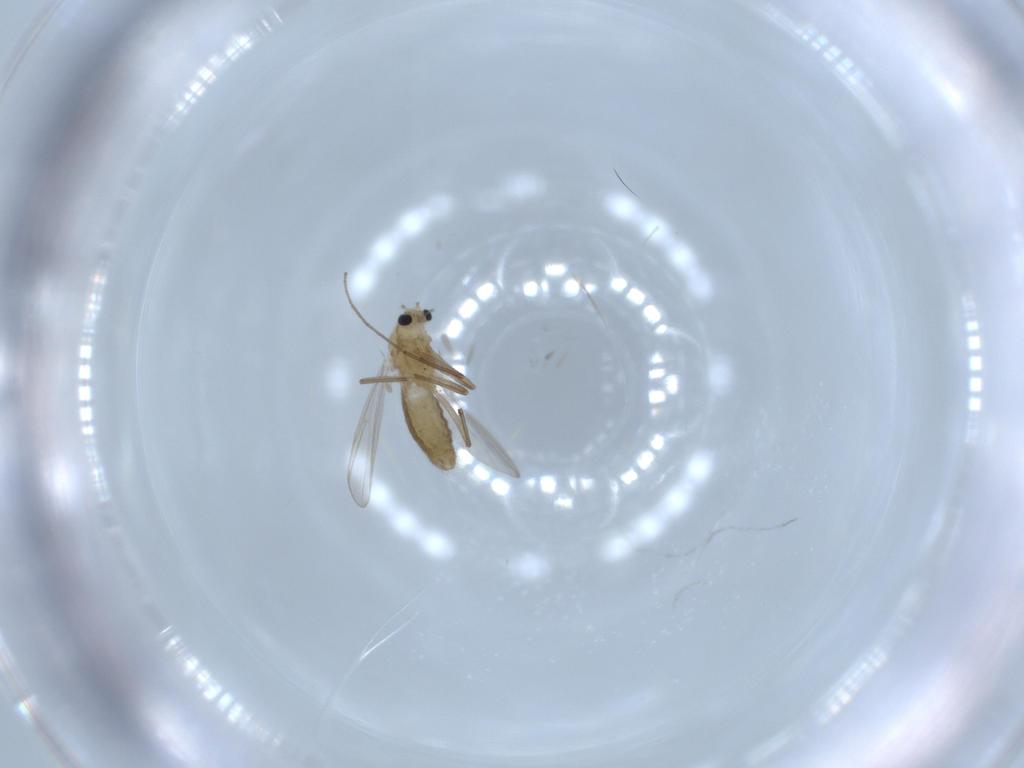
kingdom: Animalia
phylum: Arthropoda
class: Insecta
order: Diptera
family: Chironomidae
